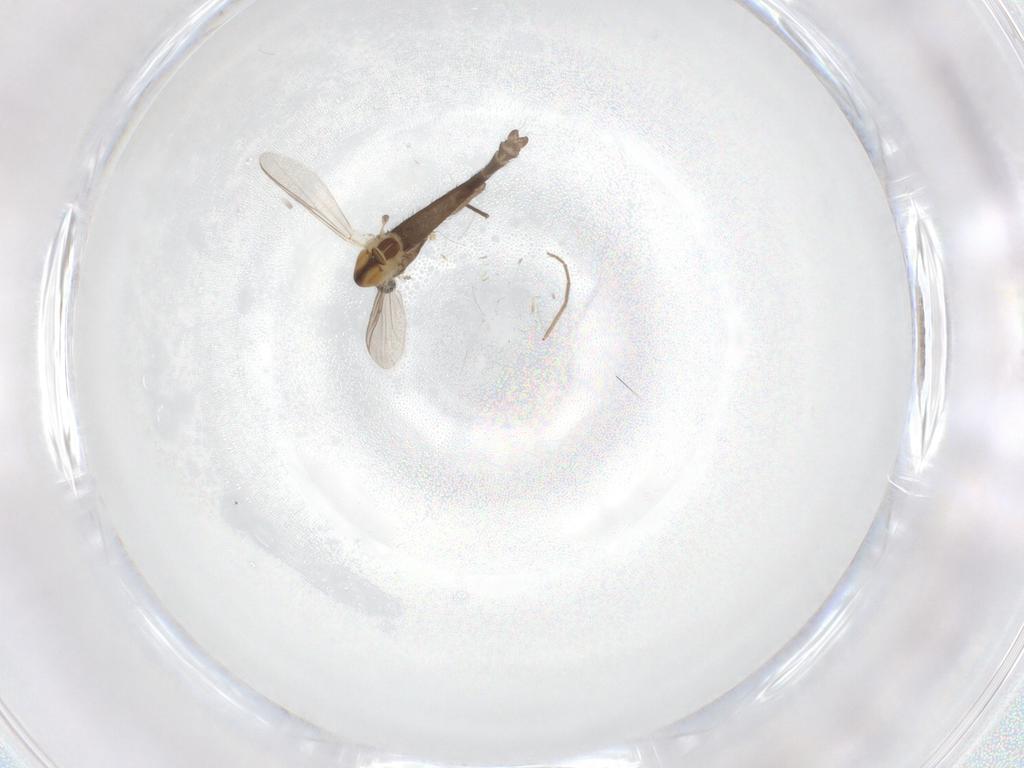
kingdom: Animalia
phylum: Arthropoda
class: Insecta
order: Diptera
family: Chironomidae
